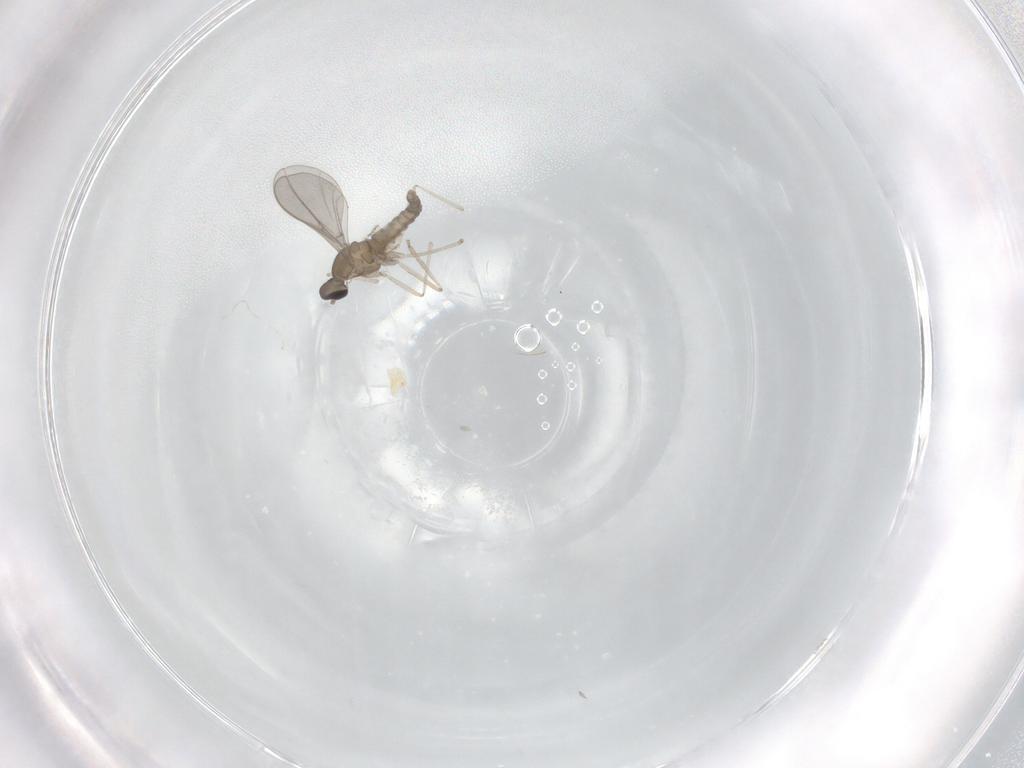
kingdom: Animalia
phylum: Arthropoda
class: Insecta
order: Diptera
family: Cecidomyiidae
